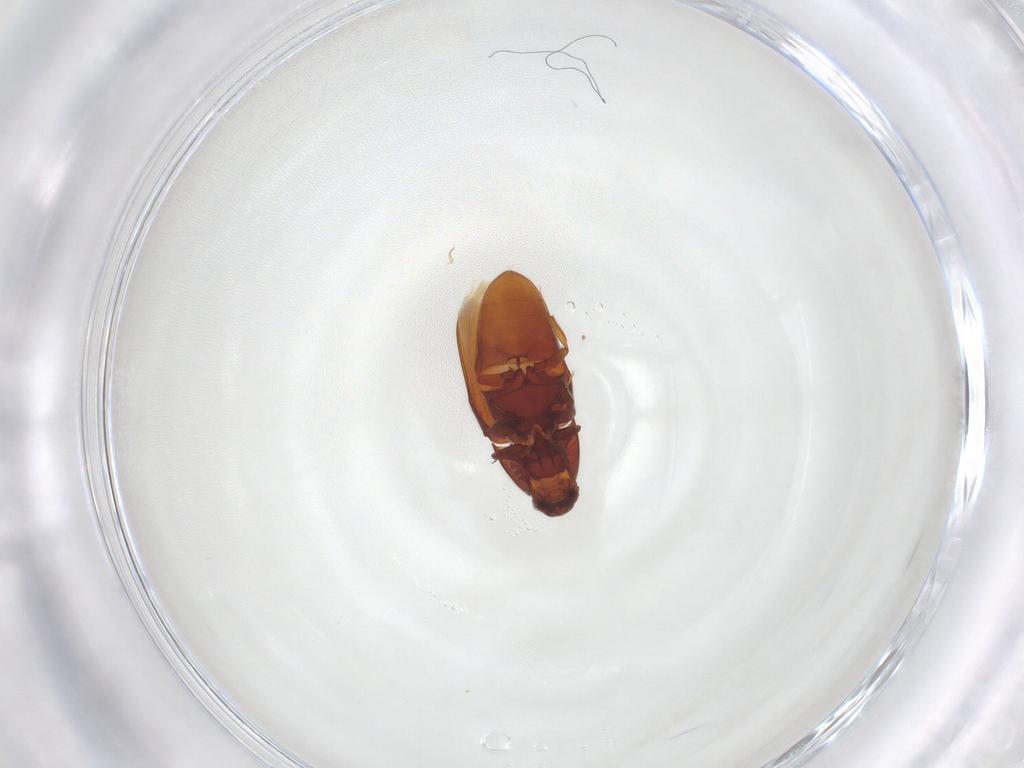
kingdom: Animalia
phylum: Arthropoda
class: Insecta
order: Coleoptera
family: Throscidae
